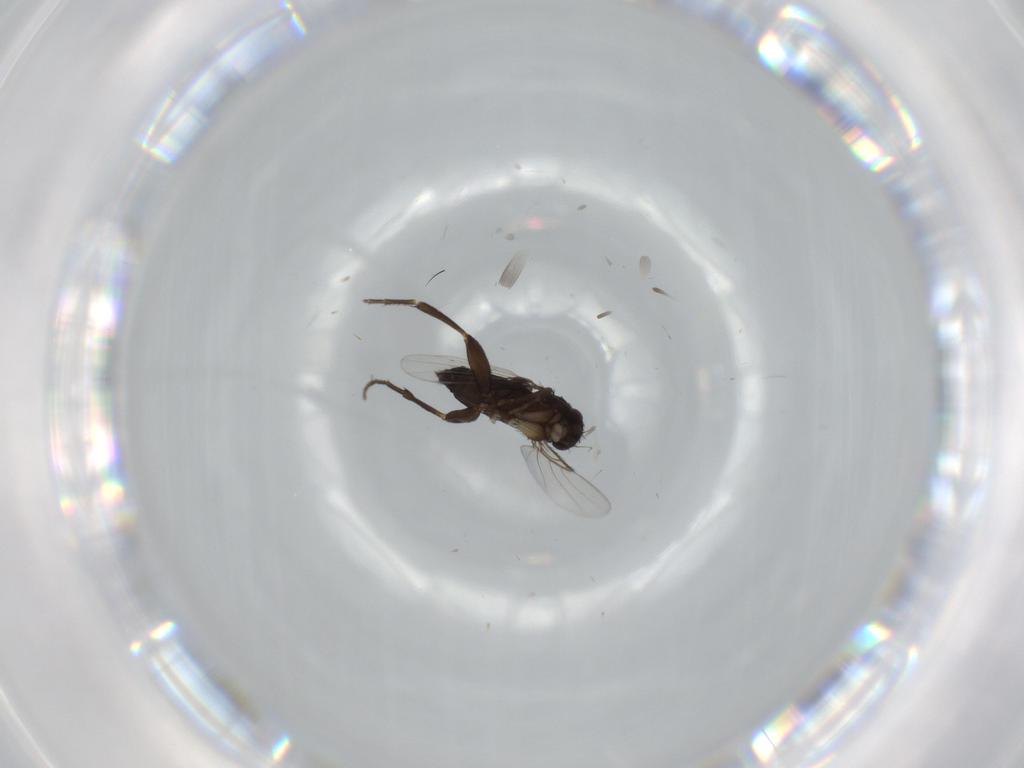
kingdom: Animalia
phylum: Arthropoda
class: Insecta
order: Diptera
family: Phoridae
